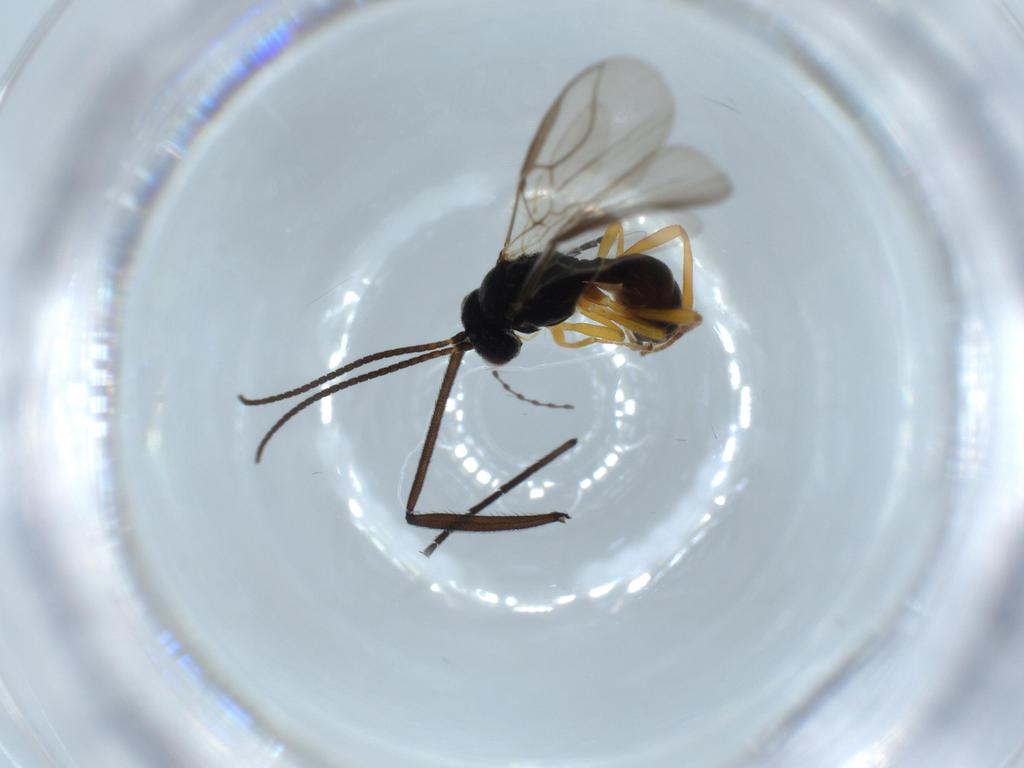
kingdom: Animalia
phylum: Arthropoda
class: Insecta
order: Hymenoptera
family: Braconidae
